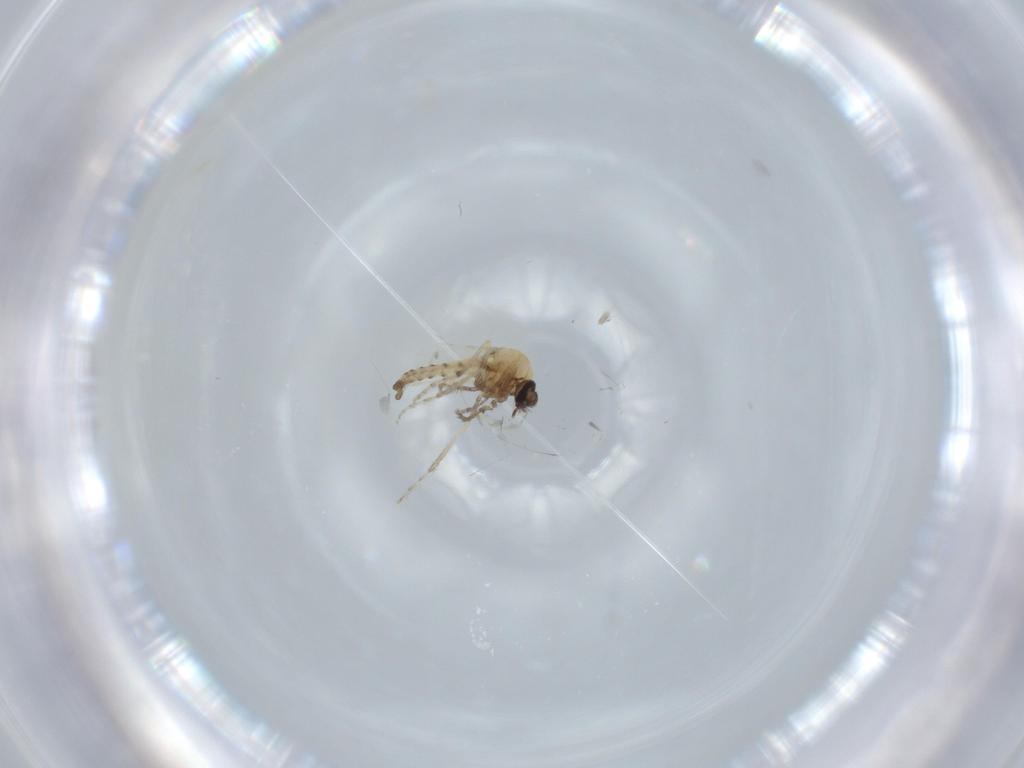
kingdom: Animalia
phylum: Arthropoda
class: Insecta
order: Diptera
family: Ceratopogonidae
